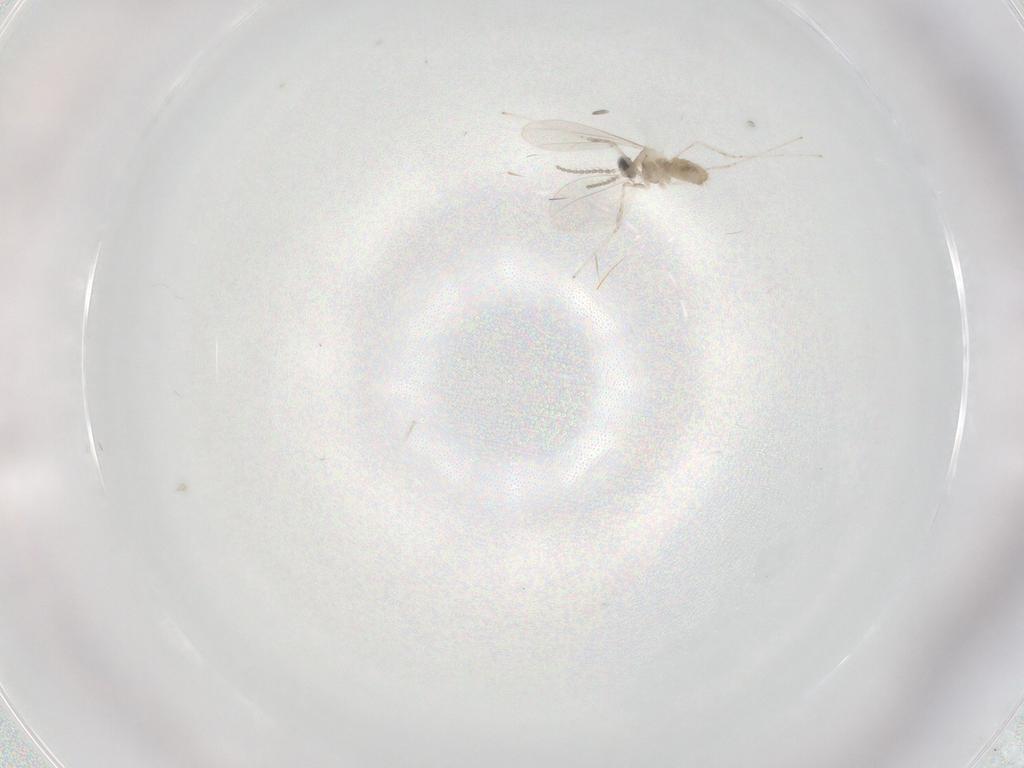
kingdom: Animalia
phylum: Arthropoda
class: Insecta
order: Diptera
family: Cecidomyiidae
